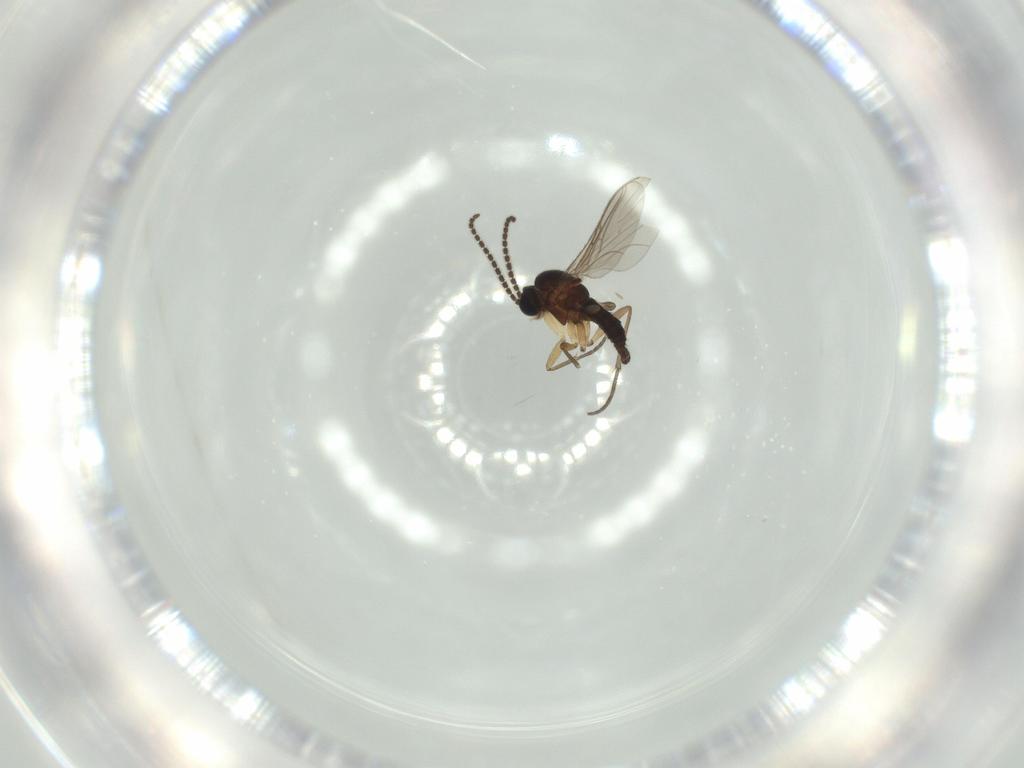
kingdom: Animalia
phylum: Arthropoda
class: Insecta
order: Diptera
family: Sciaridae
